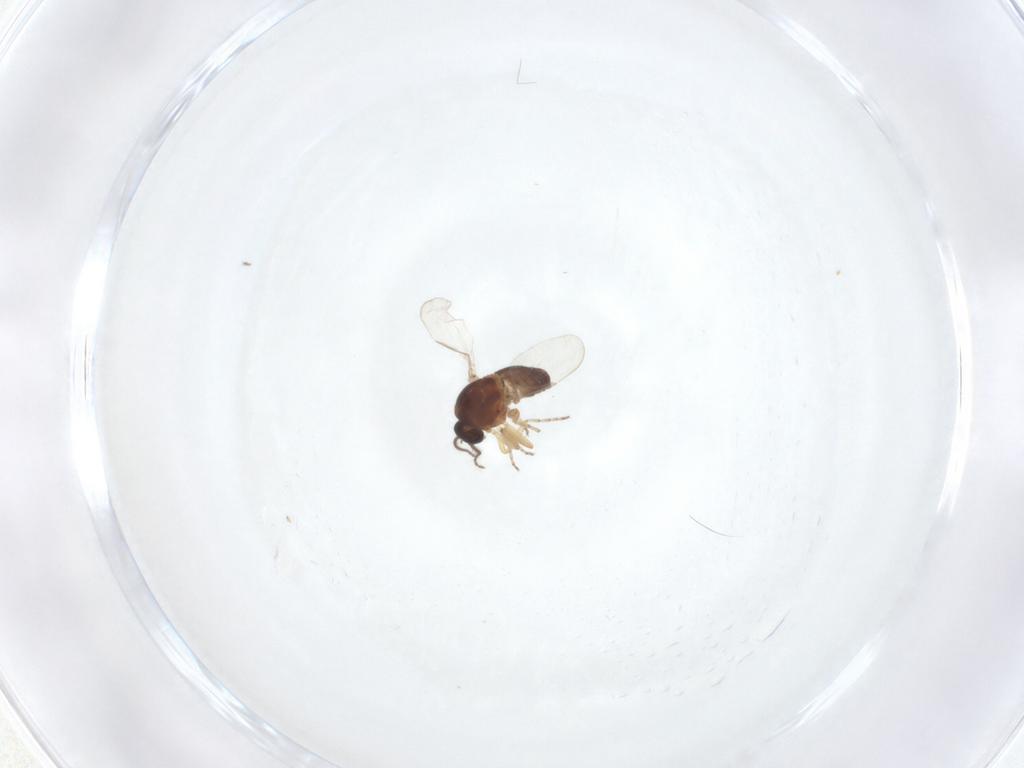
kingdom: Animalia
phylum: Arthropoda
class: Insecta
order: Diptera
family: Ceratopogonidae
